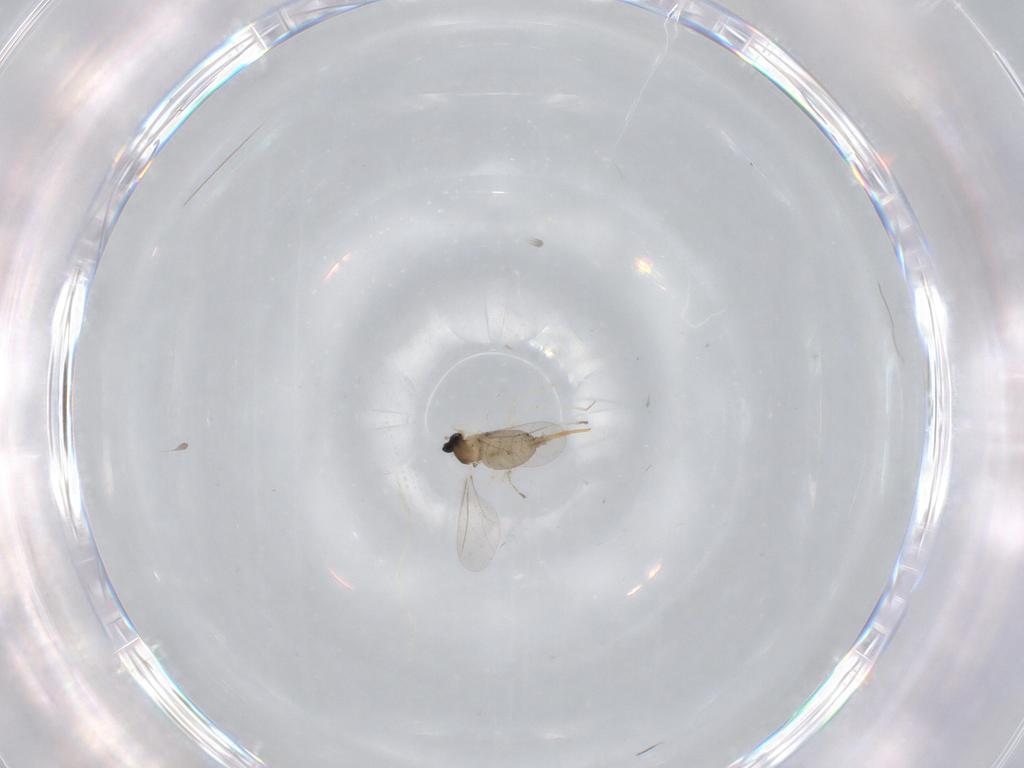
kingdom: Animalia
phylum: Arthropoda
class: Insecta
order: Diptera
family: Cecidomyiidae
